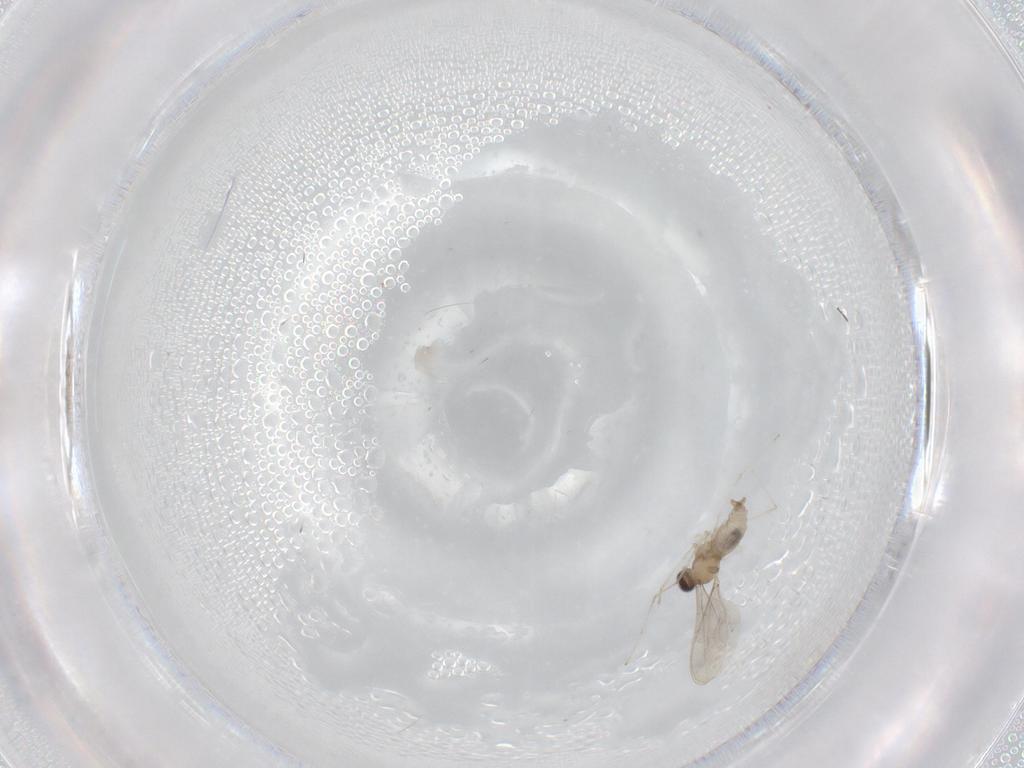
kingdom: Animalia
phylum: Arthropoda
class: Insecta
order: Diptera
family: Cecidomyiidae
